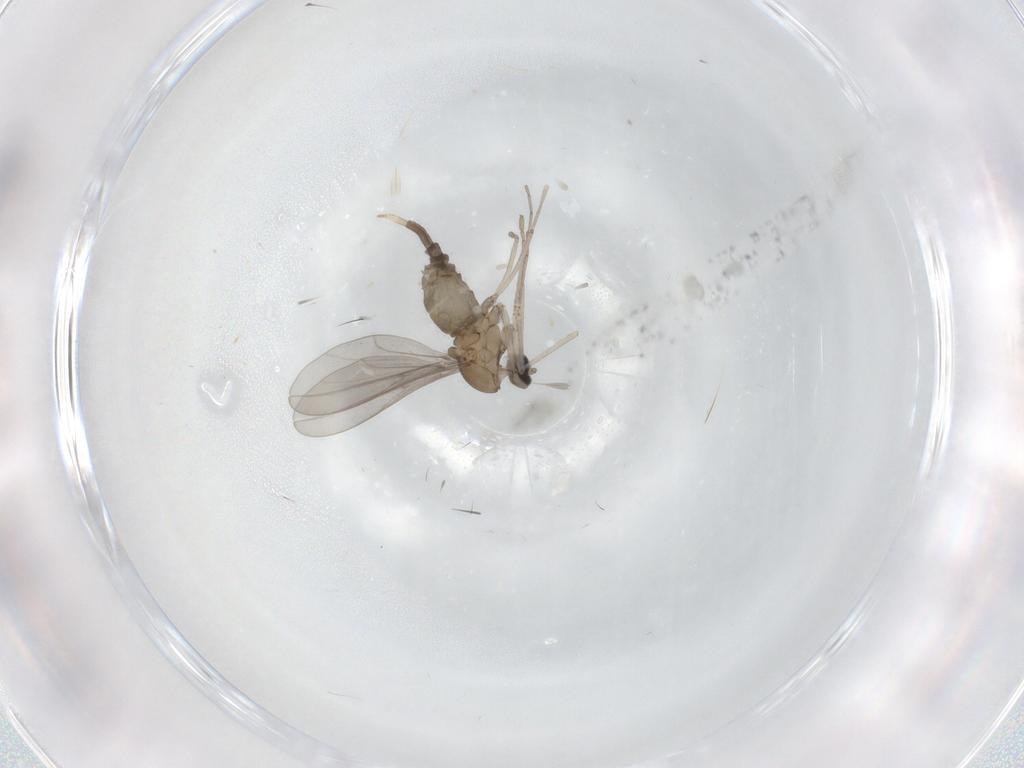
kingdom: Animalia
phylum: Arthropoda
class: Insecta
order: Diptera
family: Cecidomyiidae
